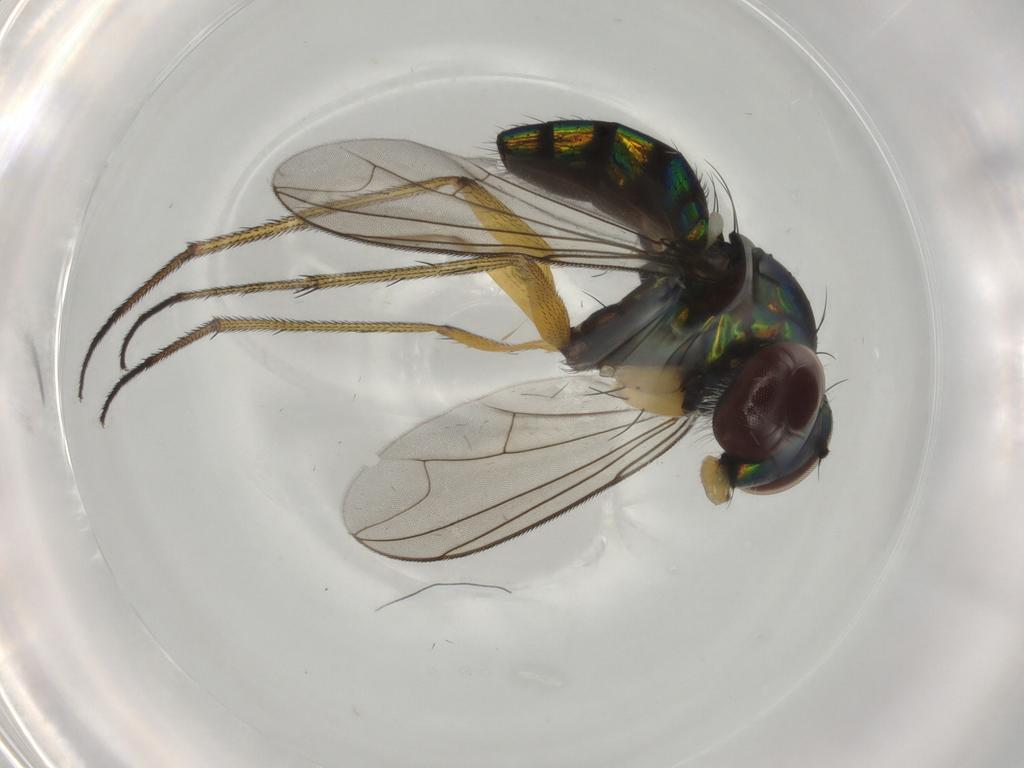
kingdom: Animalia
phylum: Arthropoda
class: Insecta
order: Diptera
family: Dolichopodidae
